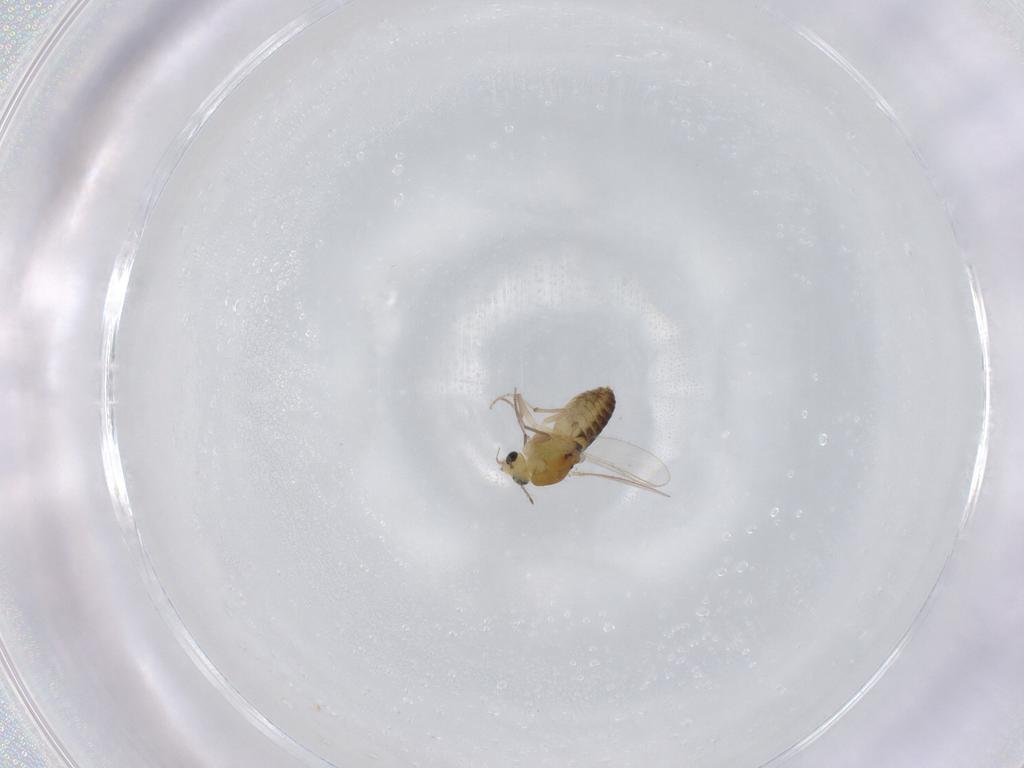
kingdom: Animalia
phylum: Arthropoda
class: Insecta
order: Diptera
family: Chironomidae
